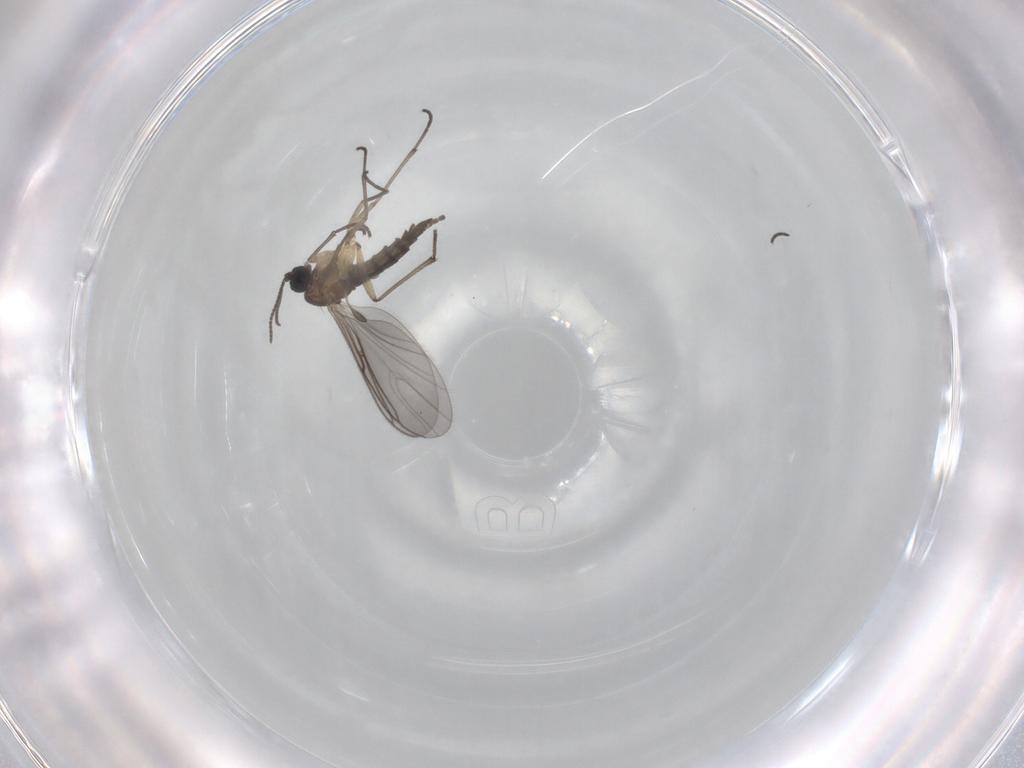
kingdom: Animalia
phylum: Arthropoda
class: Insecta
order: Diptera
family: Sciaridae
